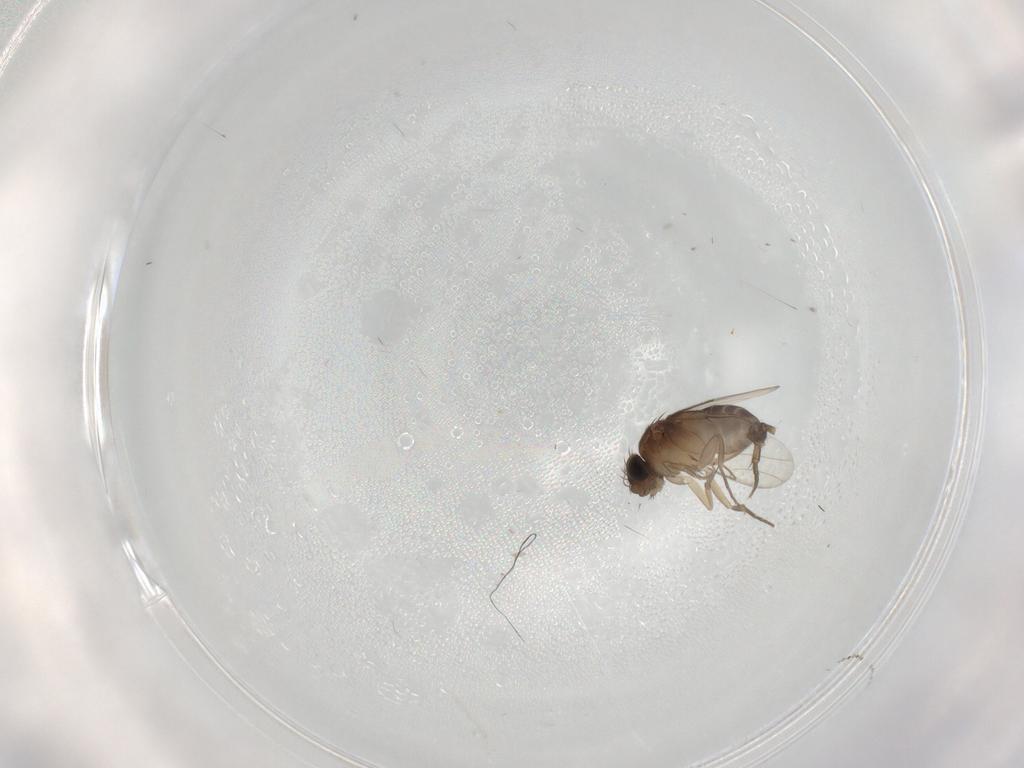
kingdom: Animalia
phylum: Arthropoda
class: Insecta
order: Diptera
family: Phoridae
